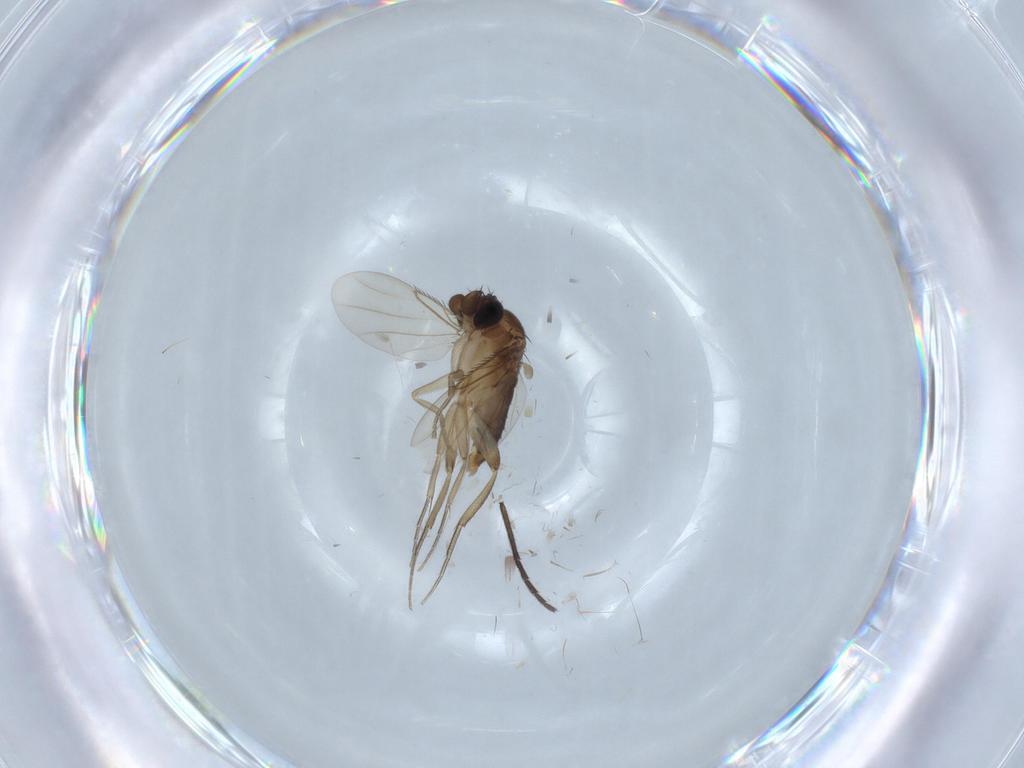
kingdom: Animalia
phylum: Arthropoda
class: Insecta
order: Diptera
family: Phoridae
